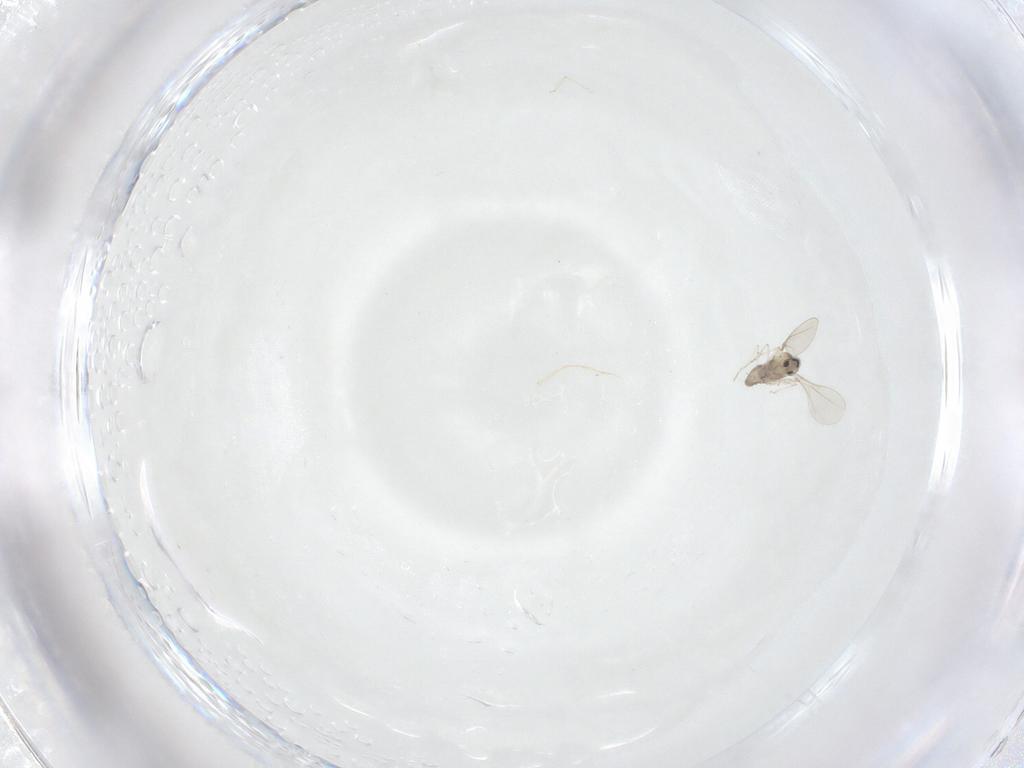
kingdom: Animalia
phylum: Arthropoda
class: Insecta
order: Diptera
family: Cecidomyiidae
